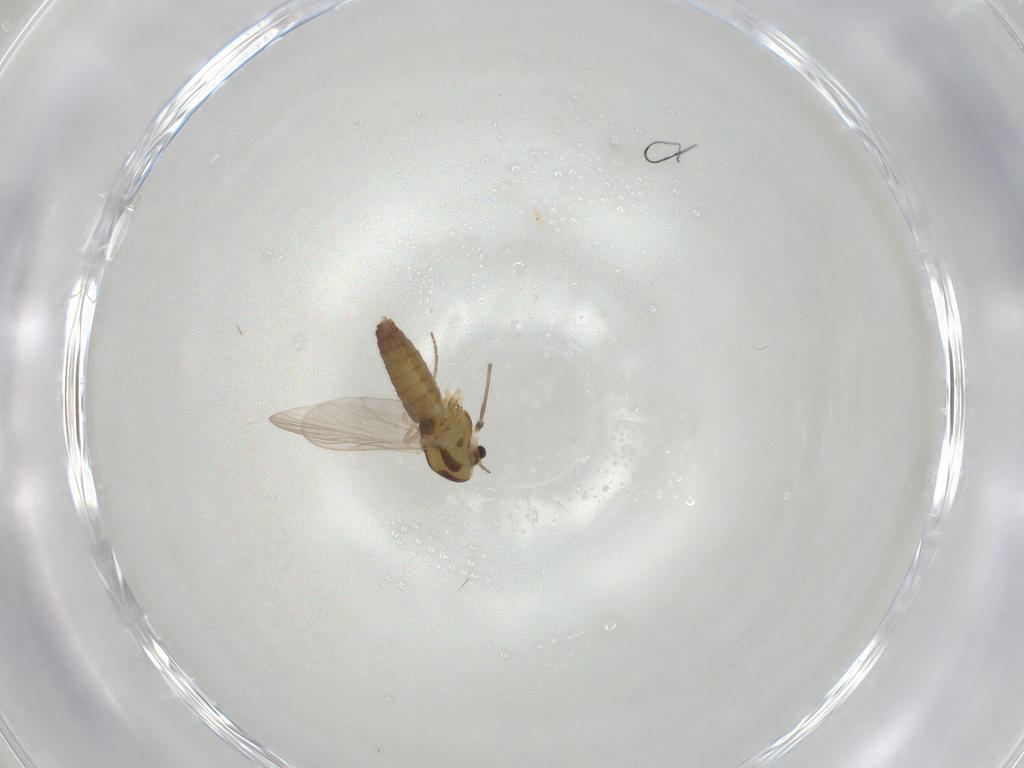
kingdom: Animalia
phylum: Arthropoda
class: Insecta
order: Diptera
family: Chironomidae
